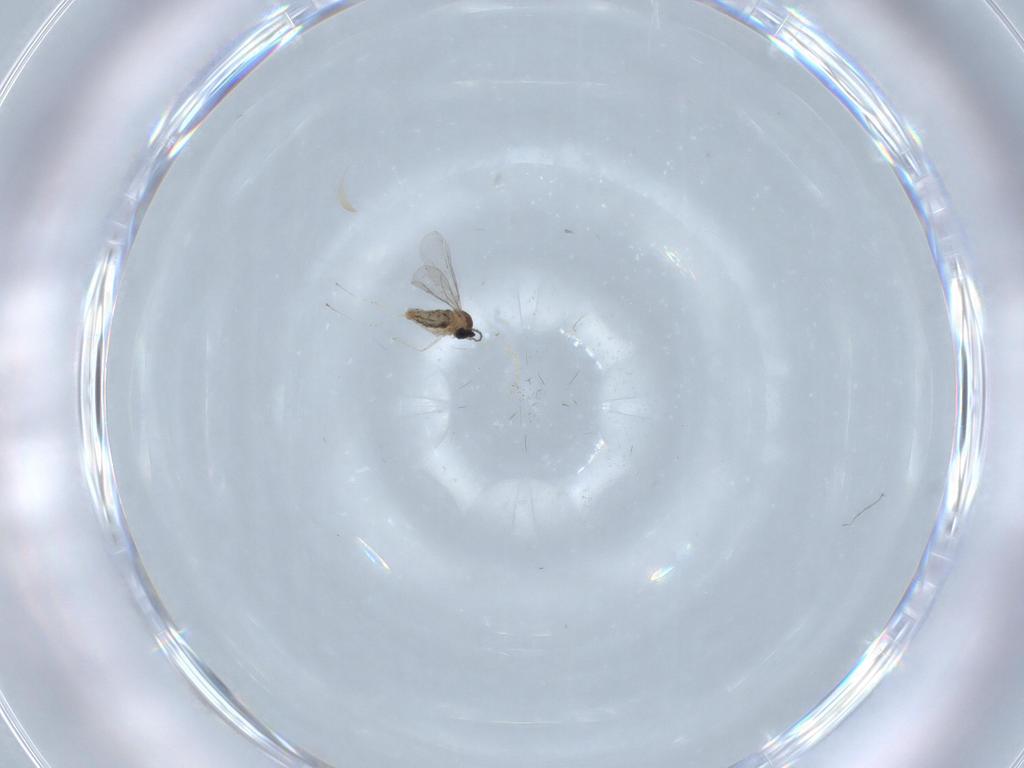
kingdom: Animalia
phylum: Arthropoda
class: Insecta
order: Diptera
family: Cecidomyiidae
